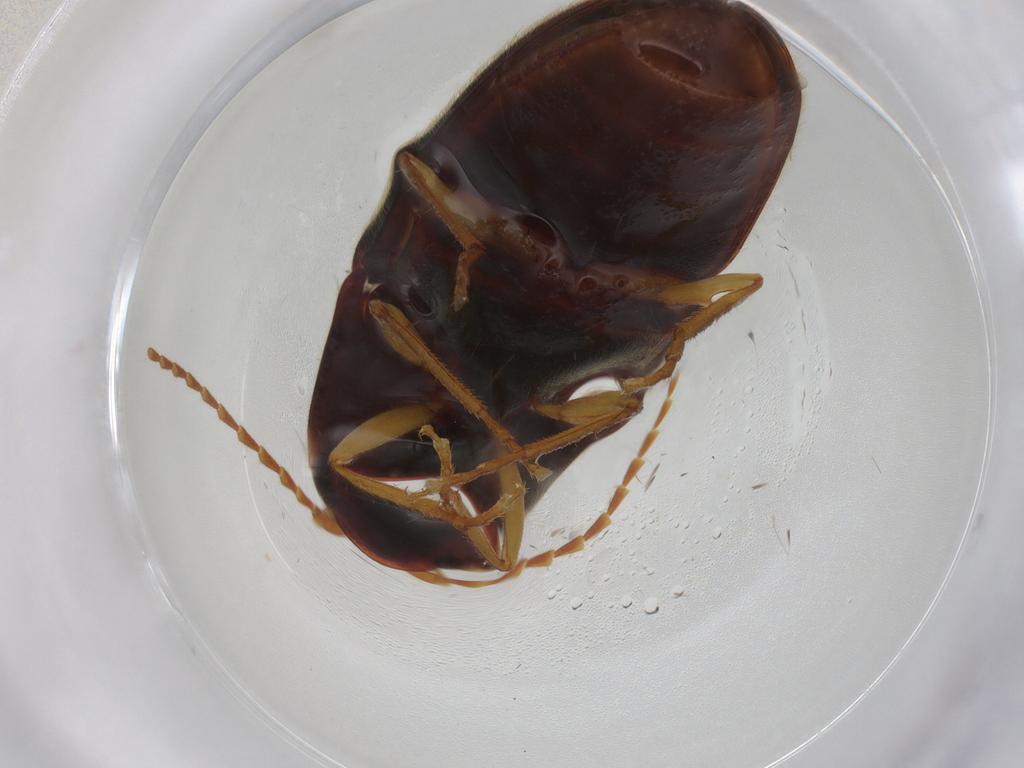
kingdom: Animalia
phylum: Arthropoda
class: Insecta
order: Coleoptera
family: Elateridae
